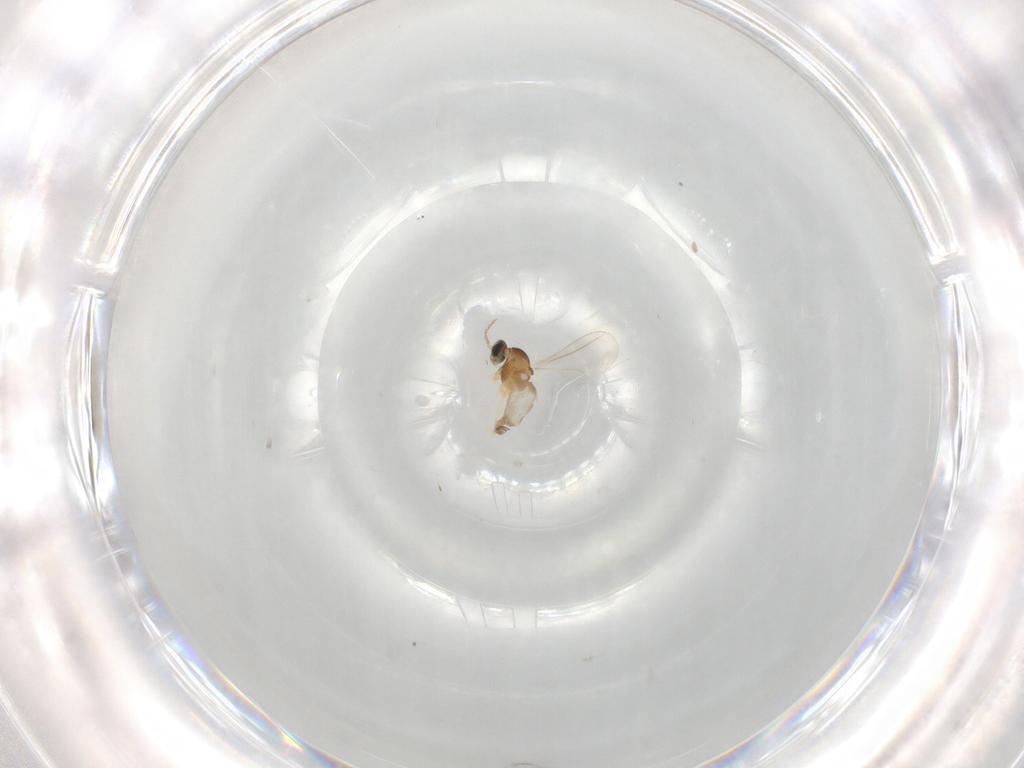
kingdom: Animalia
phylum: Arthropoda
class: Insecta
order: Diptera
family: Cecidomyiidae
